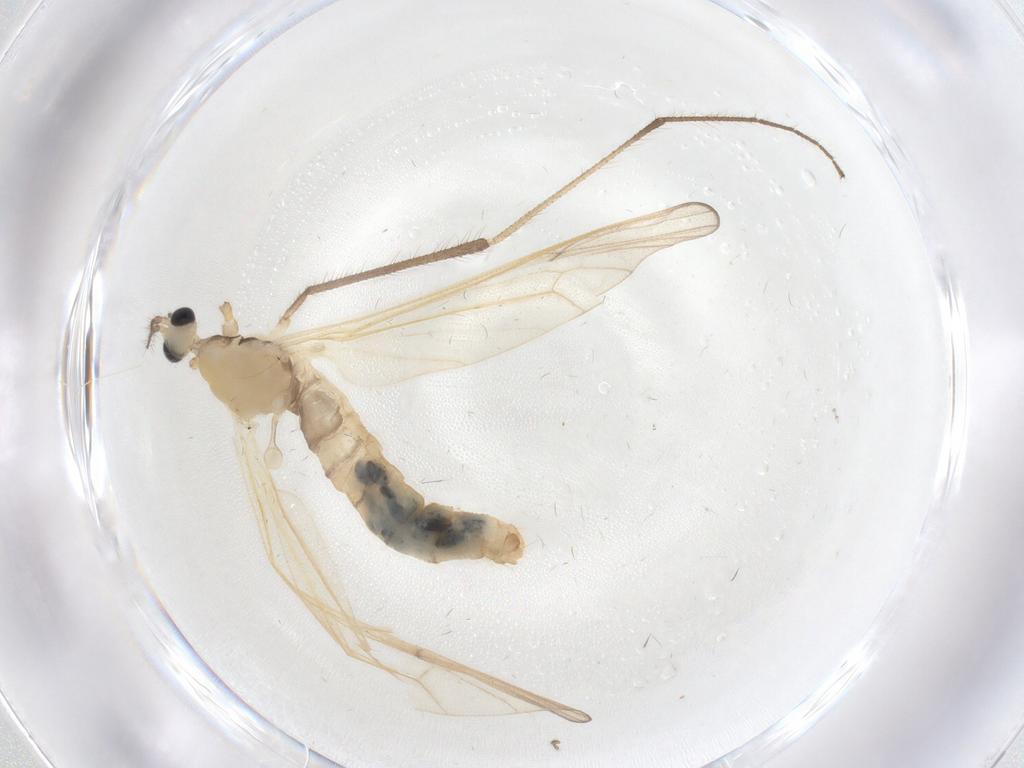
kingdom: Animalia
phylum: Arthropoda
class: Insecta
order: Diptera
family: Limoniidae
